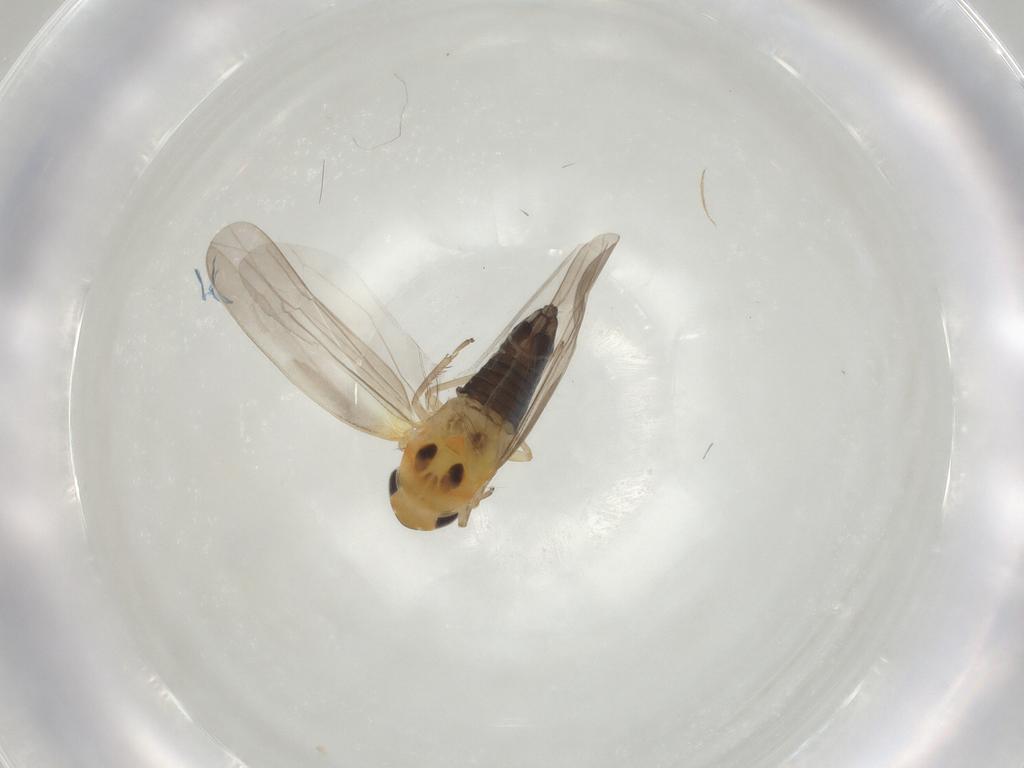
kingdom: Animalia
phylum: Arthropoda
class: Insecta
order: Hemiptera
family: Cicadellidae
